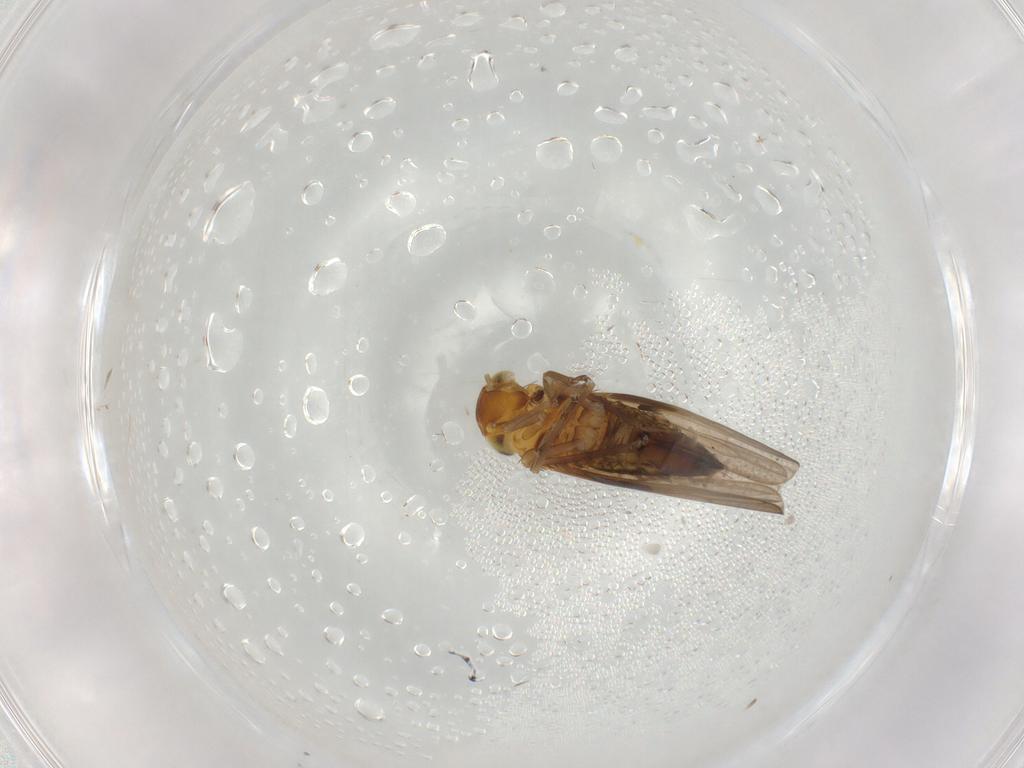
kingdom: Animalia
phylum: Arthropoda
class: Insecta
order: Hemiptera
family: Cicadellidae
